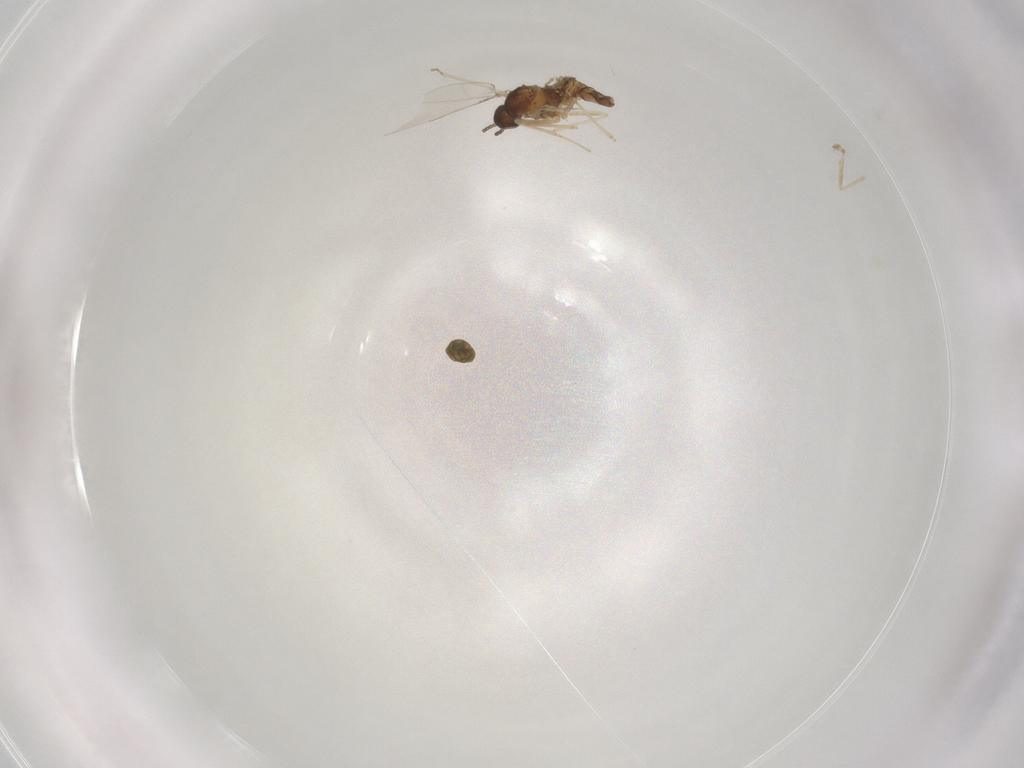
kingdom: Animalia
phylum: Arthropoda
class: Insecta
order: Diptera
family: Cecidomyiidae
